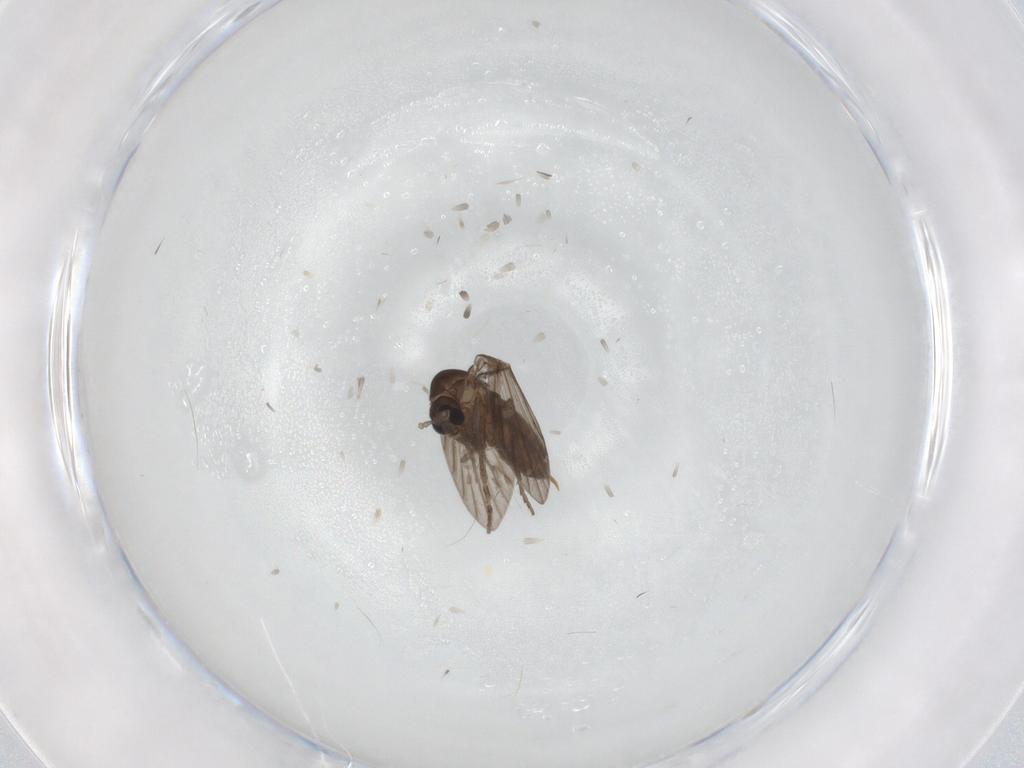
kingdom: Animalia
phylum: Arthropoda
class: Insecta
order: Diptera
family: Psychodidae
